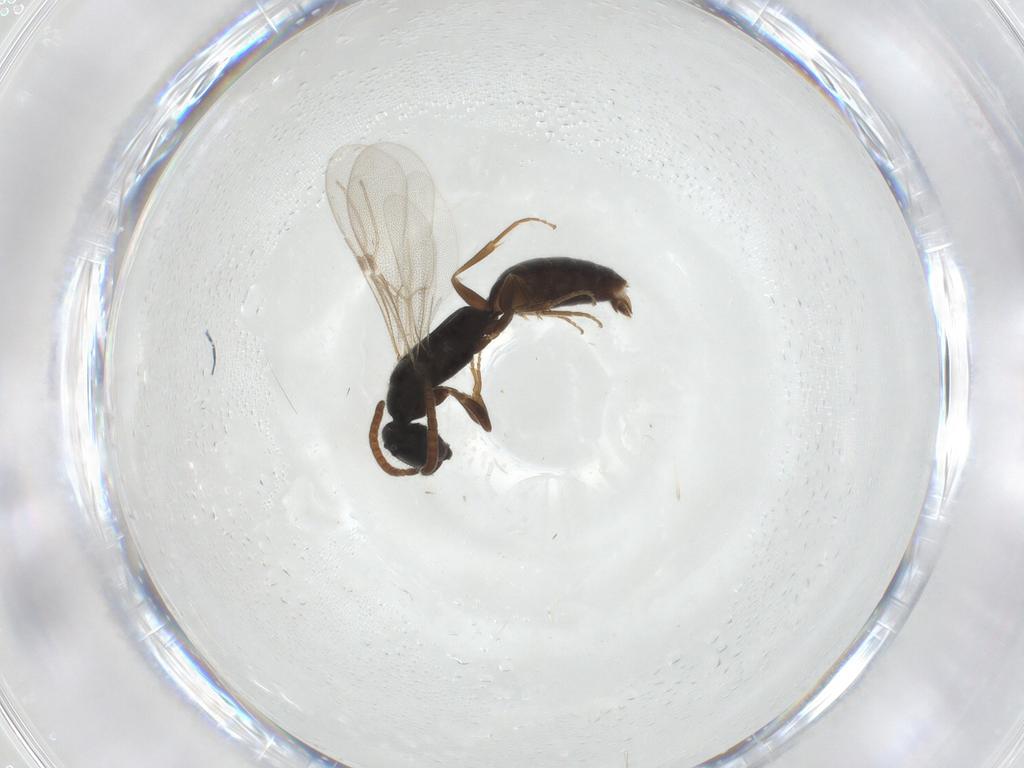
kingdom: Animalia
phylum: Arthropoda
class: Insecta
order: Hymenoptera
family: Bethylidae
